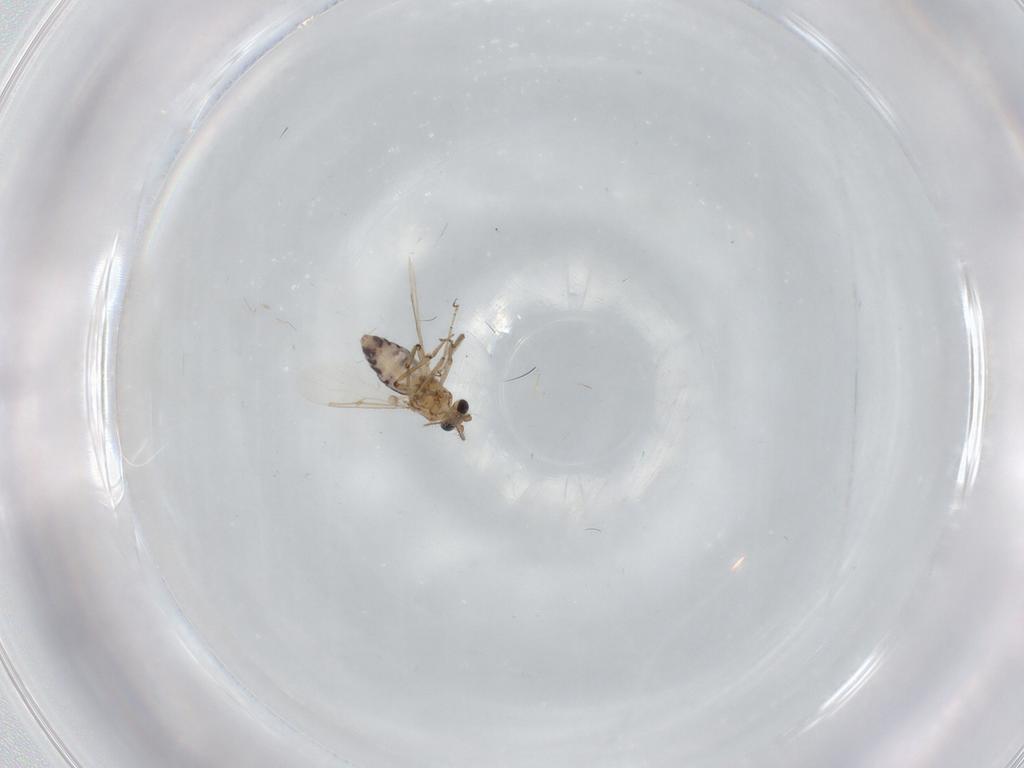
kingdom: Animalia
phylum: Arthropoda
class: Insecta
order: Diptera
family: Ceratopogonidae
